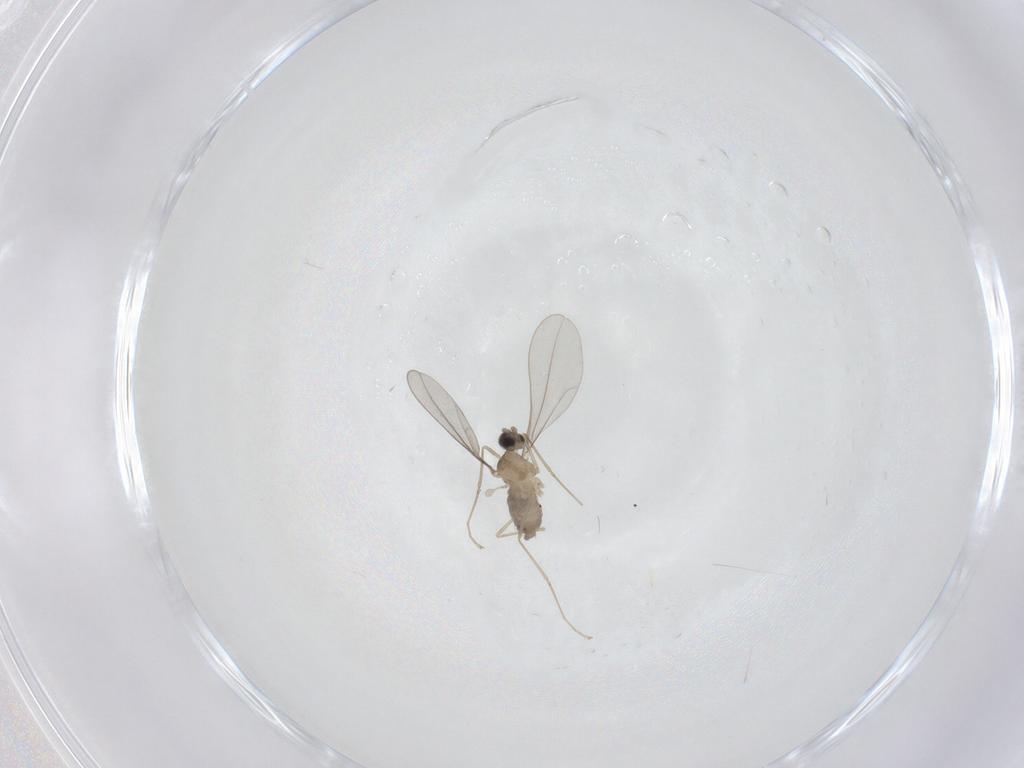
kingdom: Animalia
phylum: Arthropoda
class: Insecta
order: Diptera
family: Cecidomyiidae
